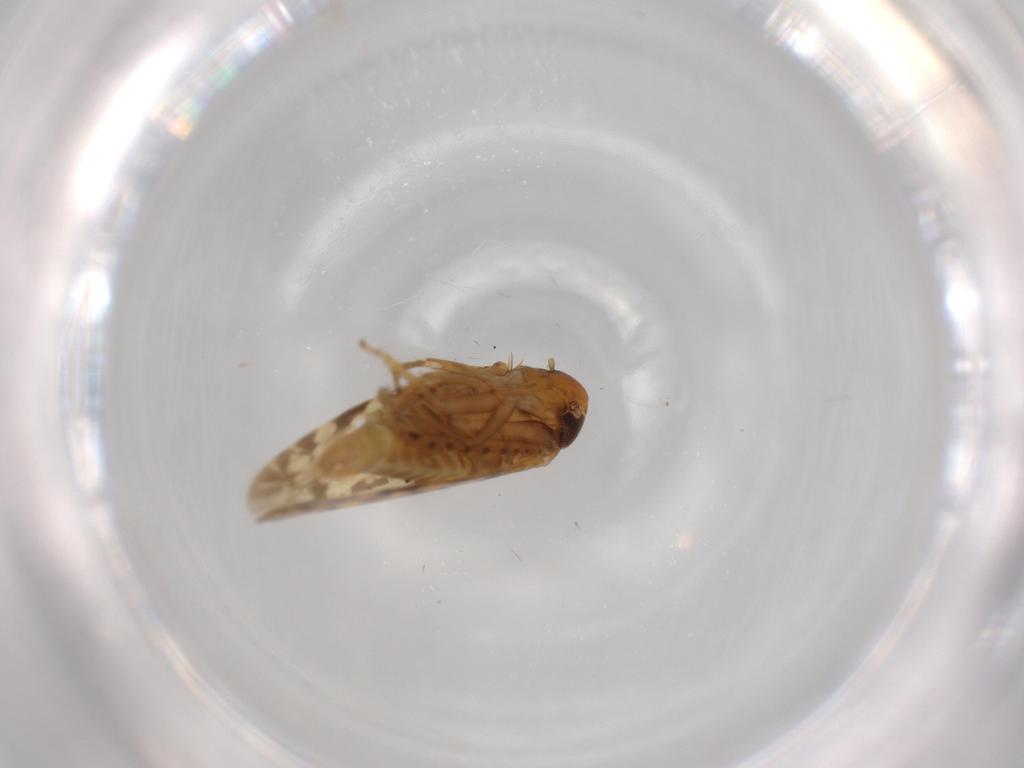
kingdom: Animalia
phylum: Arthropoda
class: Insecta
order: Hemiptera
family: Cicadellidae
